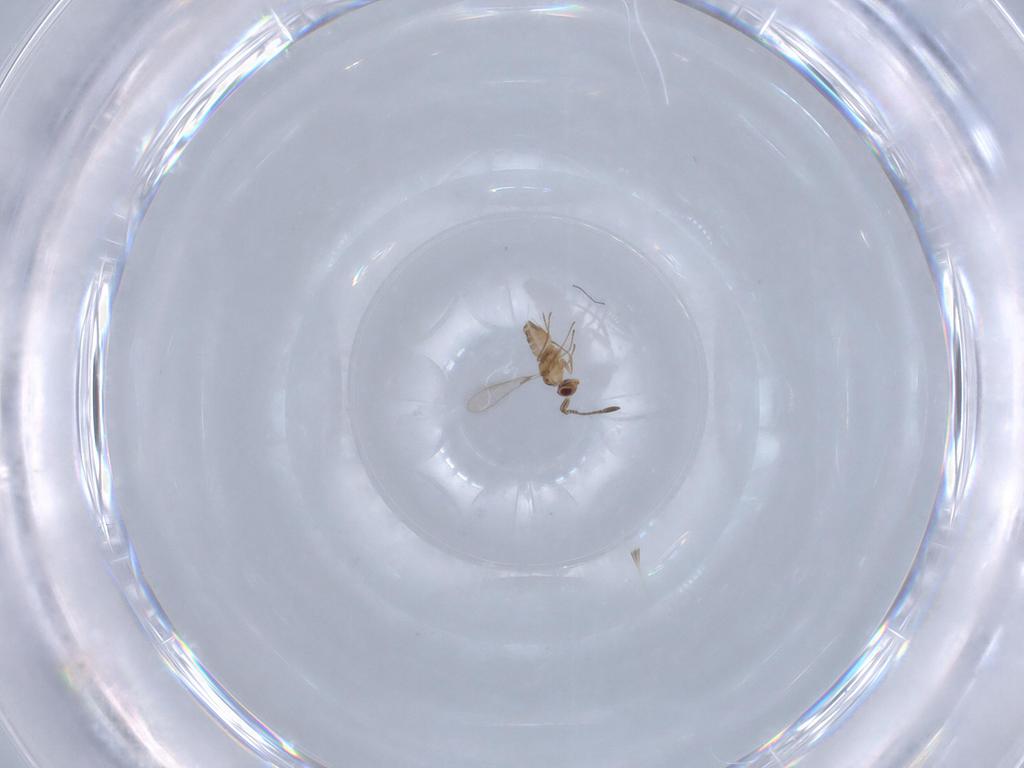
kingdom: Animalia
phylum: Arthropoda
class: Insecta
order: Hymenoptera
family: Mymaridae
